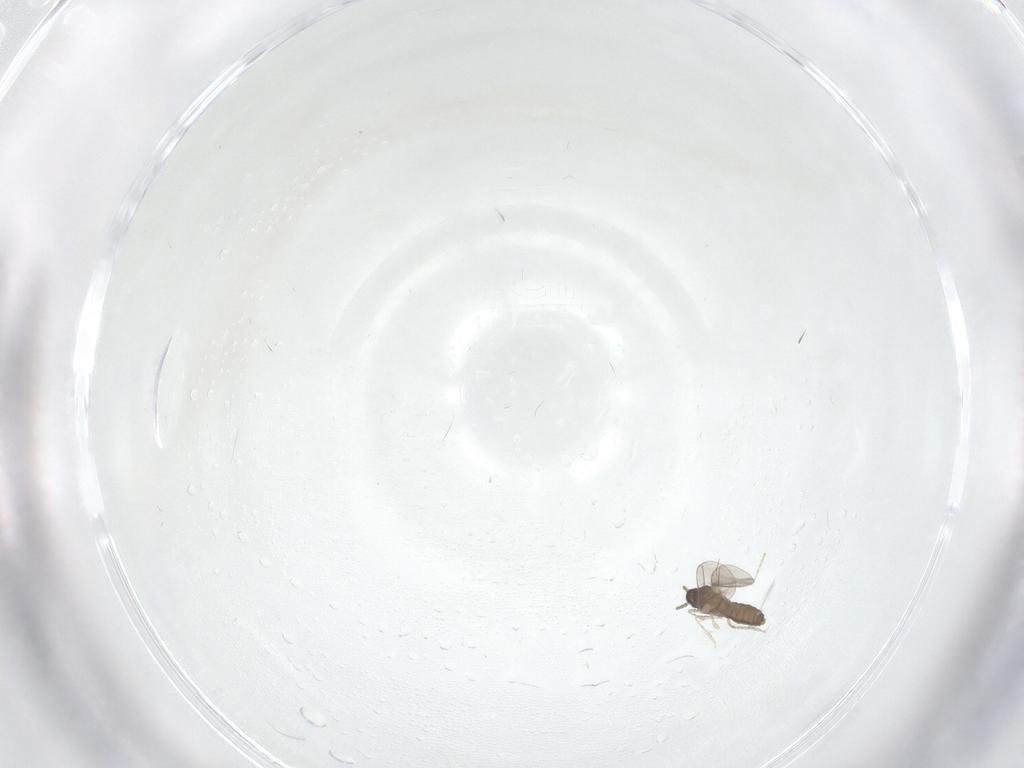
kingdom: Animalia
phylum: Arthropoda
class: Insecta
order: Diptera
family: Cecidomyiidae
